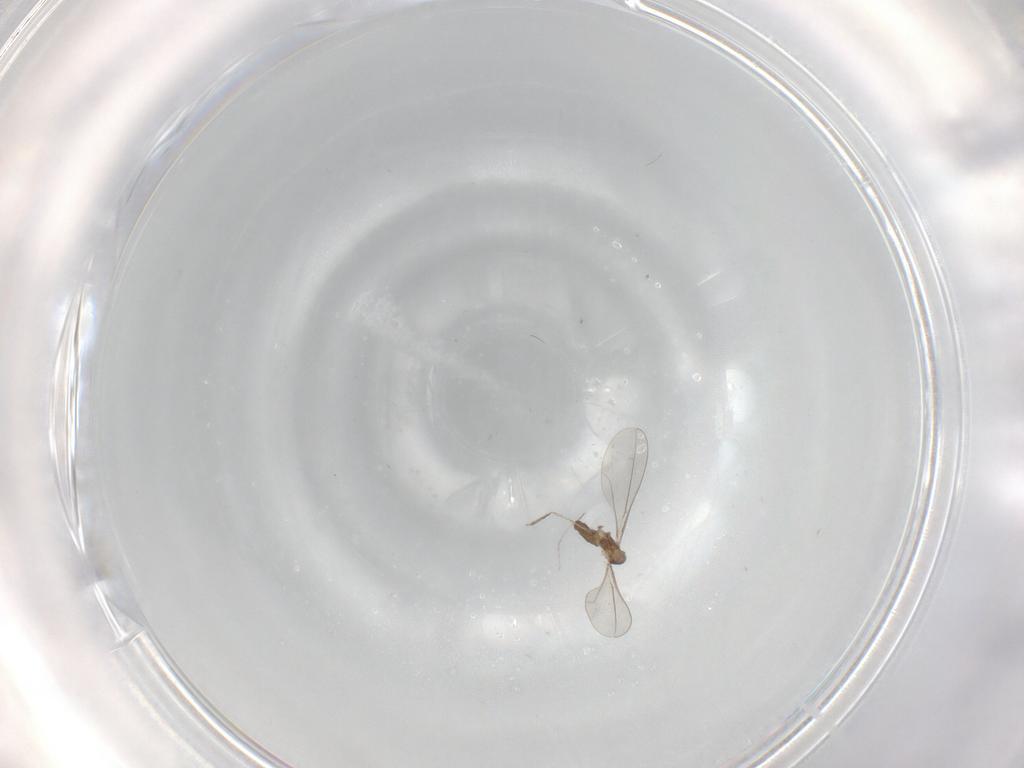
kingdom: Animalia
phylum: Arthropoda
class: Insecta
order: Diptera
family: Cecidomyiidae
